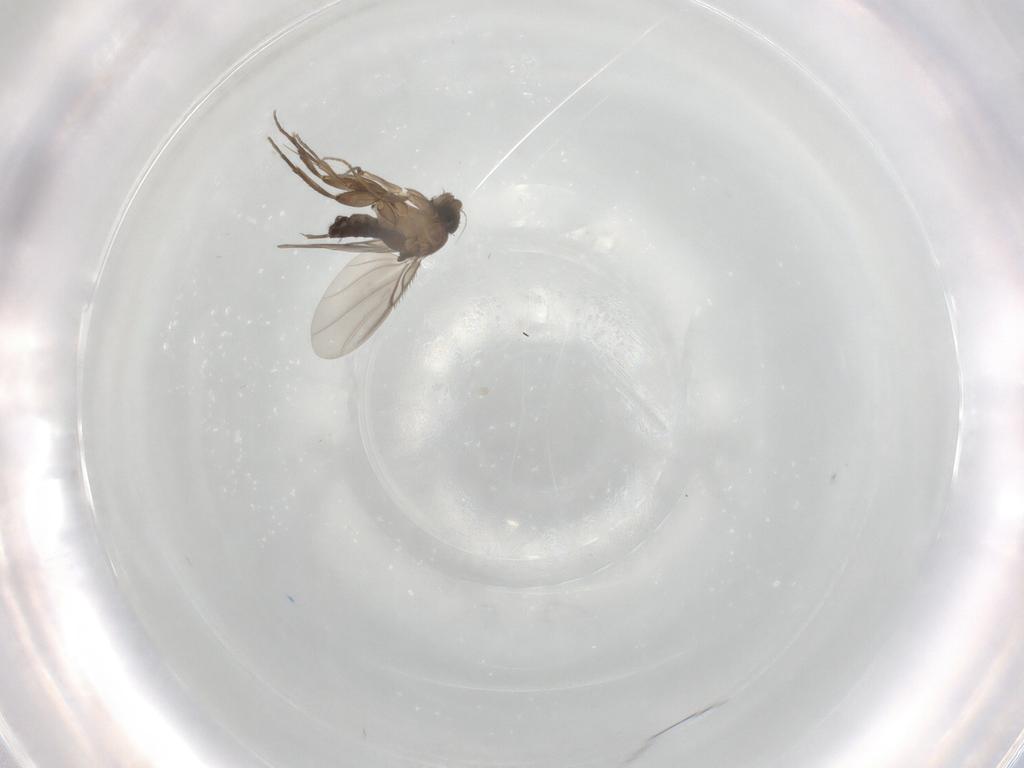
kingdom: Animalia
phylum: Arthropoda
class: Insecta
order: Diptera
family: Phoridae
